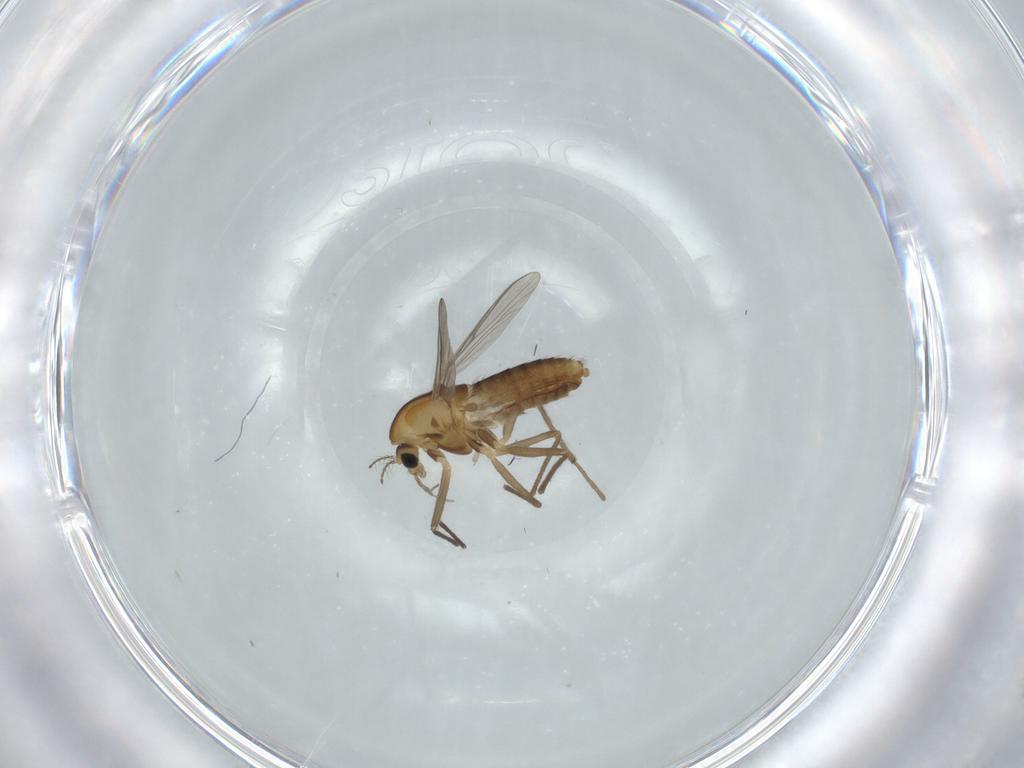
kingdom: Animalia
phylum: Arthropoda
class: Insecta
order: Diptera
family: Chironomidae
